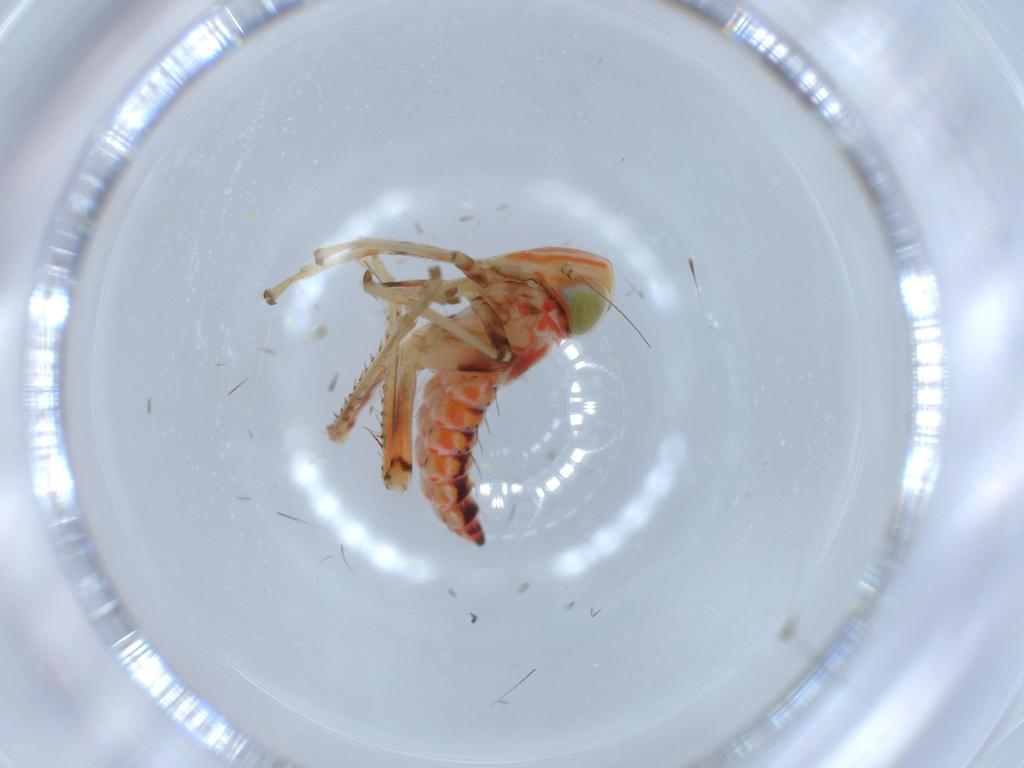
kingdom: Animalia
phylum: Arthropoda
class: Insecta
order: Hemiptera
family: Cicadellidae
